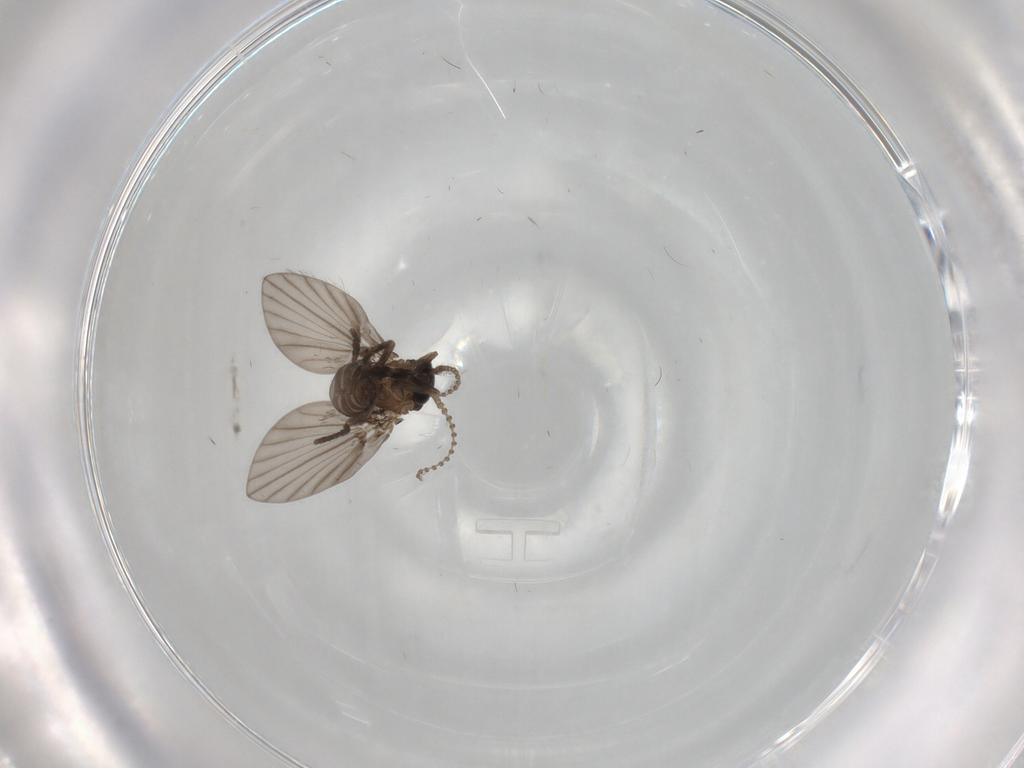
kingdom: Animalia
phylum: Arthropoda
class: Insecta
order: Diptera
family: Psychodidae
